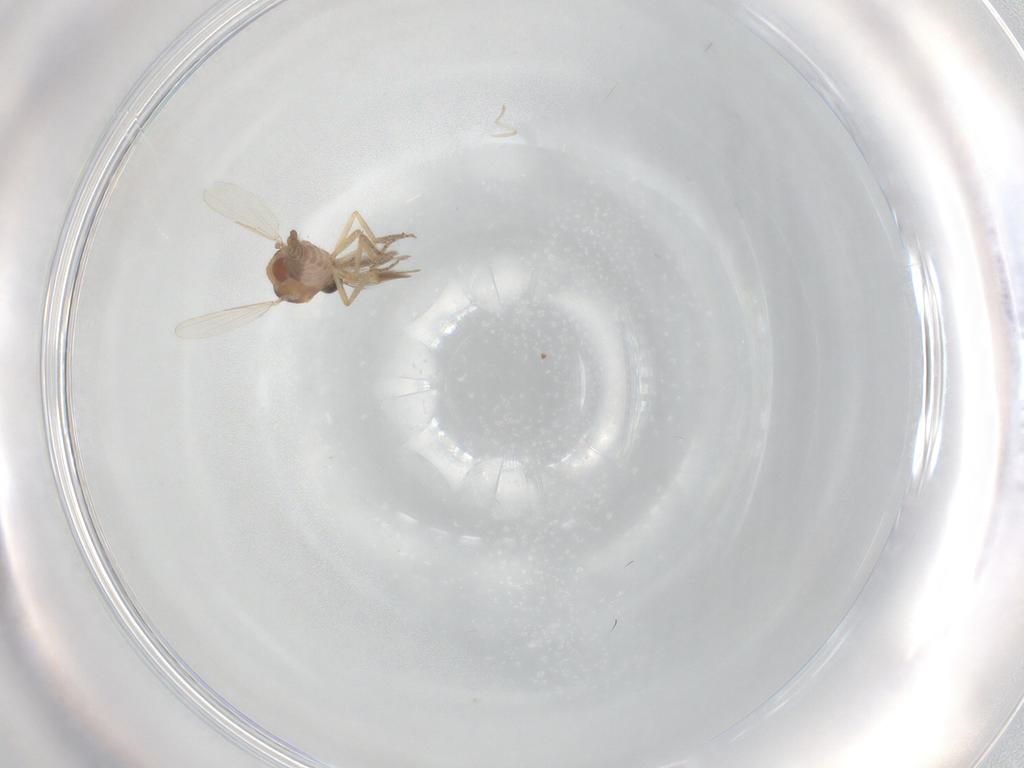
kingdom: Animalia
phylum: Arthropoda
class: Insecta
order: Diptera
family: Ceratopogonidae
